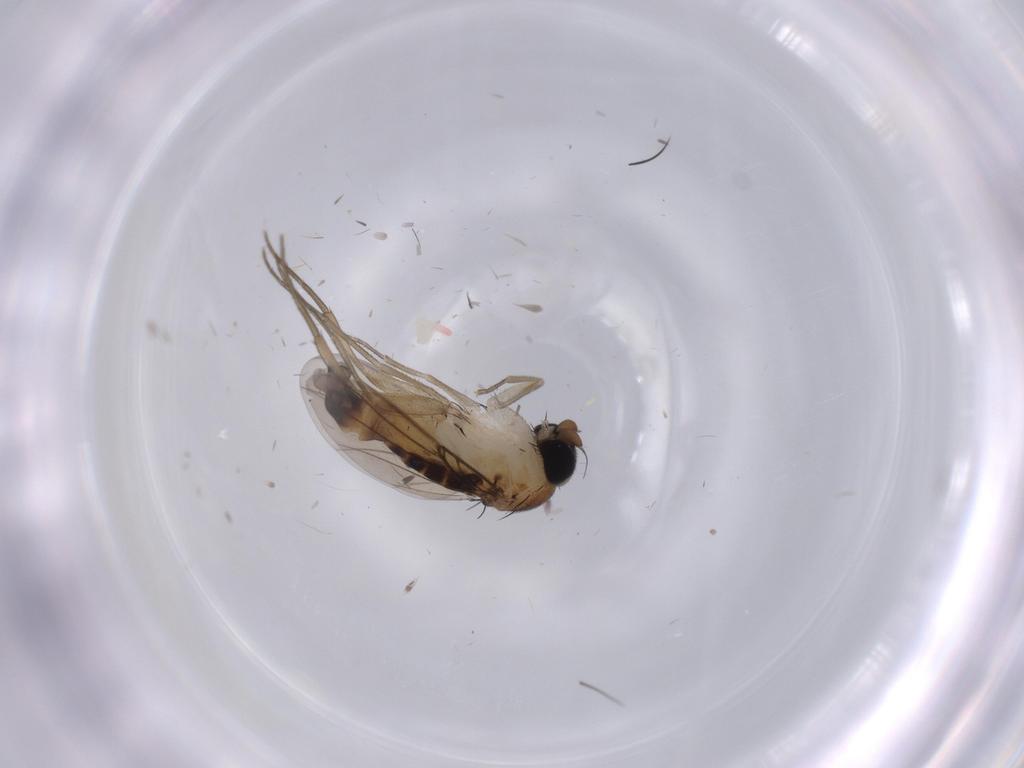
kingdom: Animalia
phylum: Arthropoda
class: Insecta
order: Diptera
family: Phoridae
